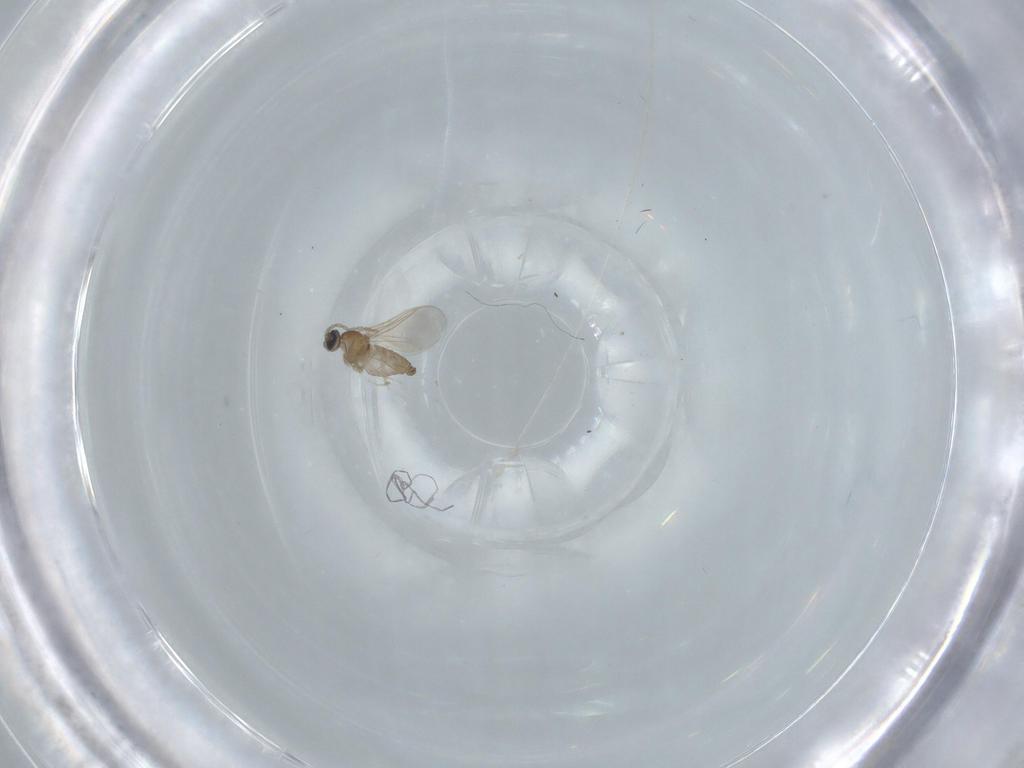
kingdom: Animalia
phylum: Arthropoda
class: Insecta
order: Diptera
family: Cecidomyiidae
